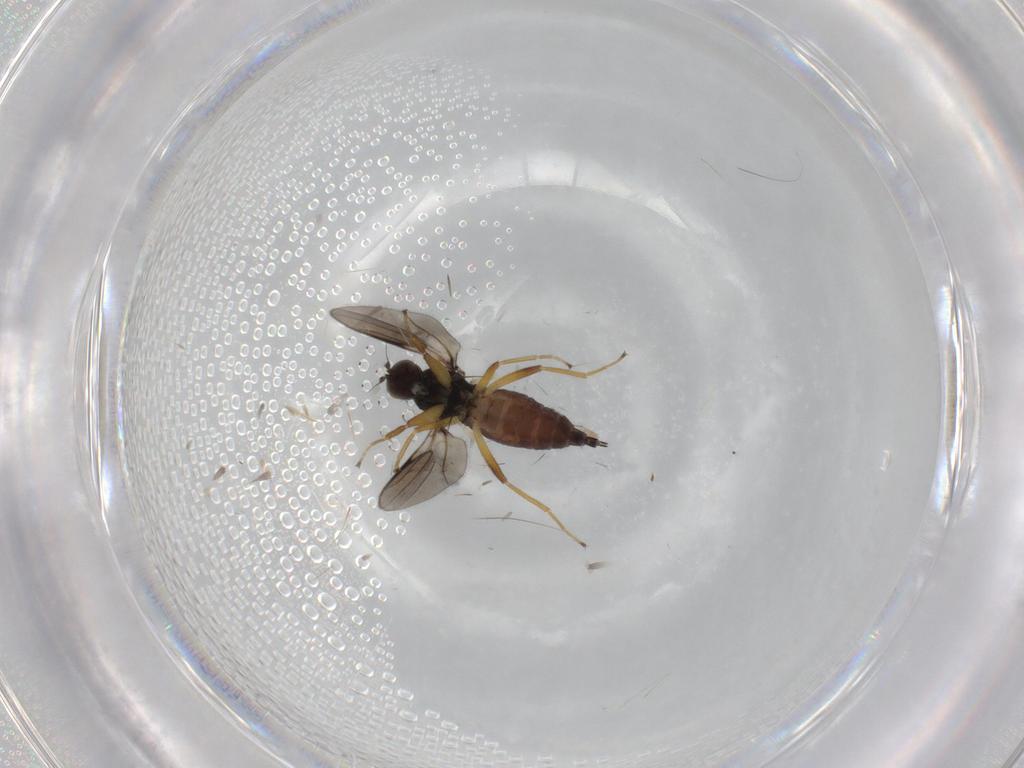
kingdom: Animalia
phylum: Arthropoda
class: Insecta
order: Diptera
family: Hybotidae
